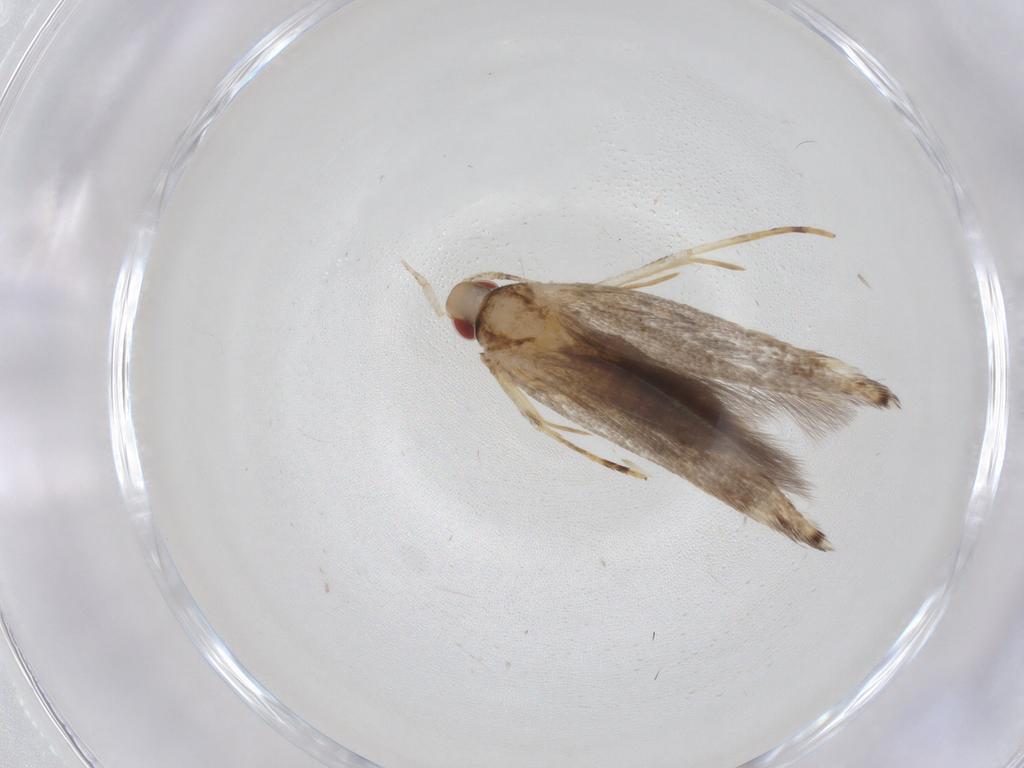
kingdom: Animalia
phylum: Arthropoda
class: Insecta
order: Lepidoptera
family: Cosmopterigidae
